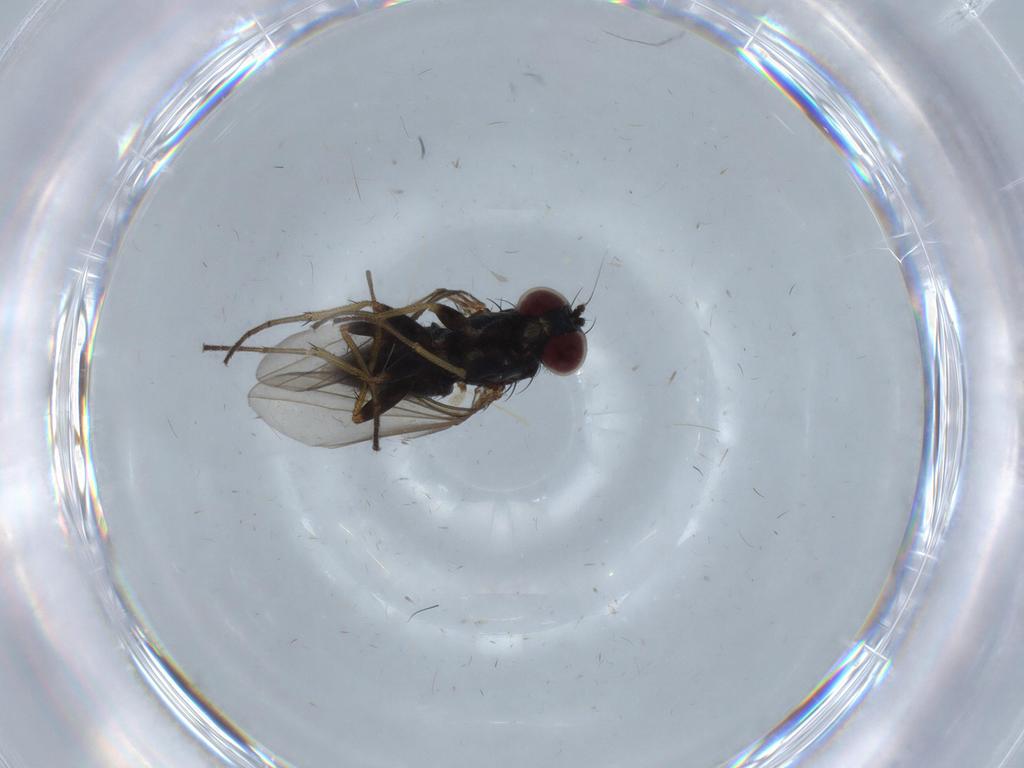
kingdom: Animalia
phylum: Arthropoda
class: Insecta
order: Diptera
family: Dolichopodidae
